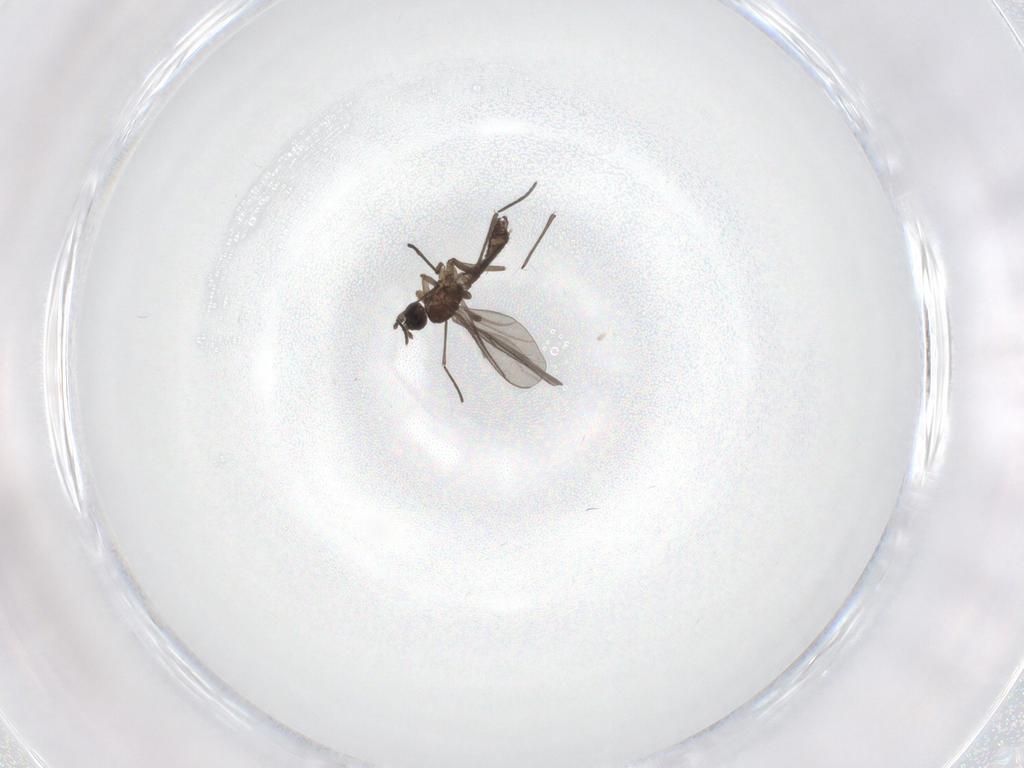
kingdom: Animalia
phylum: Arthropoda
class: Insecta
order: Diptera
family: Cecidomyiidae
